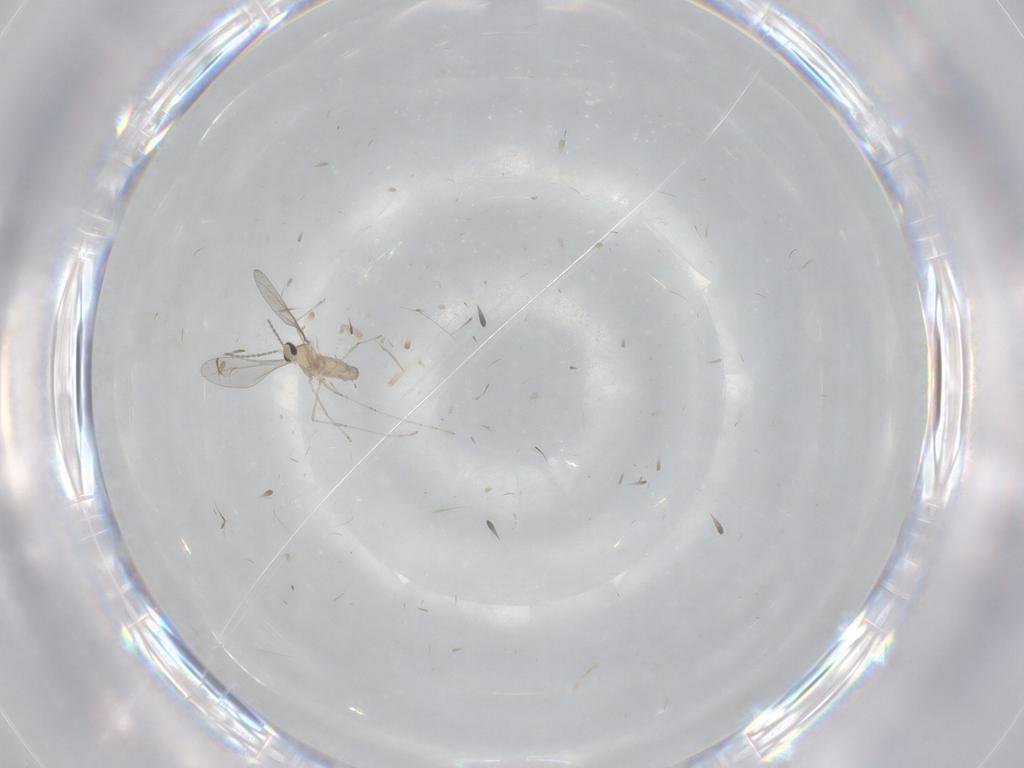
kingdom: Animalia
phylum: Arthropoda
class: Insecta
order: Diptera
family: Cecidomyiidae
